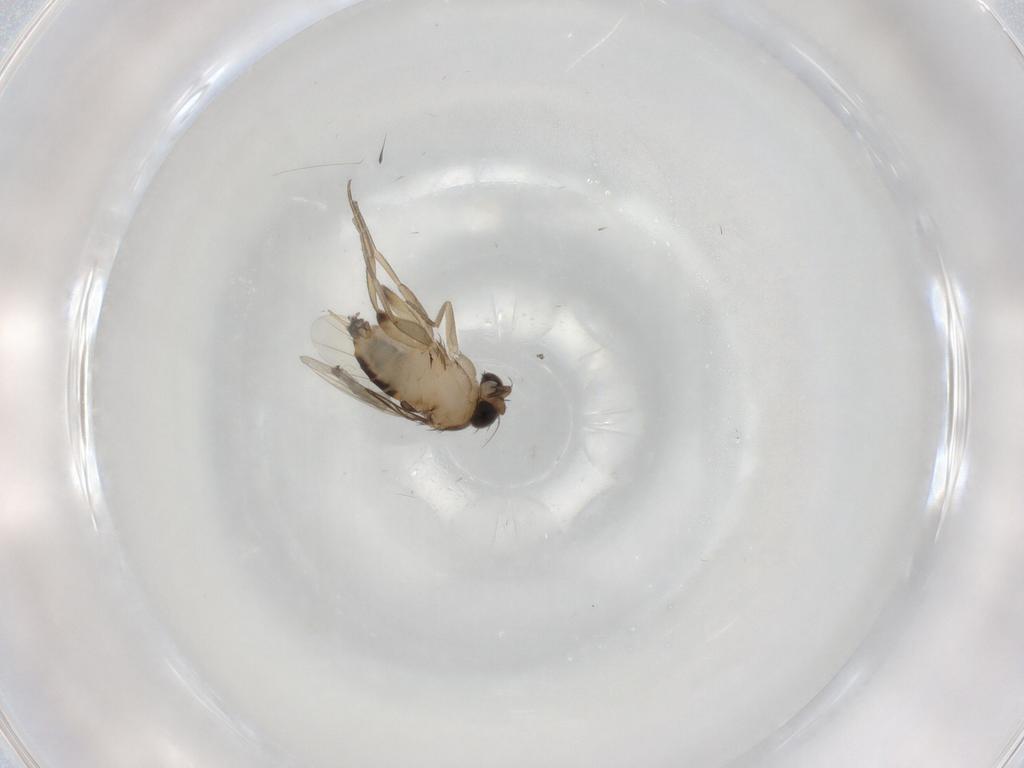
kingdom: Animalia
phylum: Arthropoda
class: Insecta
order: Diptera
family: Phoridae
